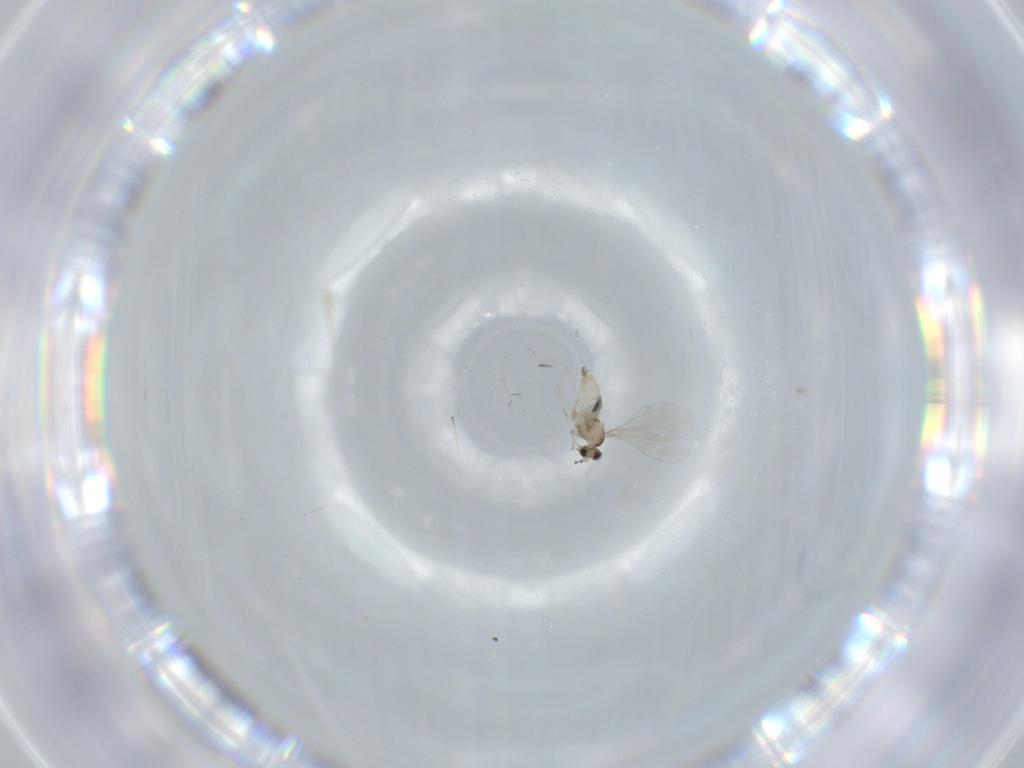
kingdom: Animalia
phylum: Arthropoda
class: Insecta
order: Diptera
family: Cecidomyiidae
